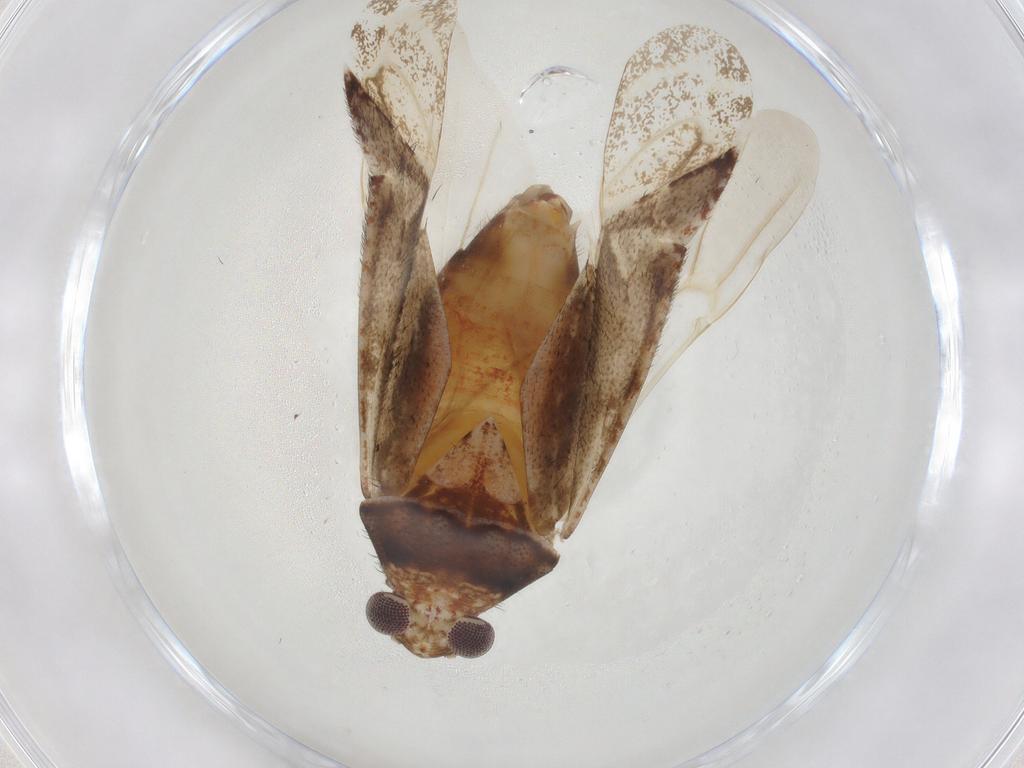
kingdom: Animalia
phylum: Arthropoda
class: Insecta
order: Hemiptera
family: Miridae
